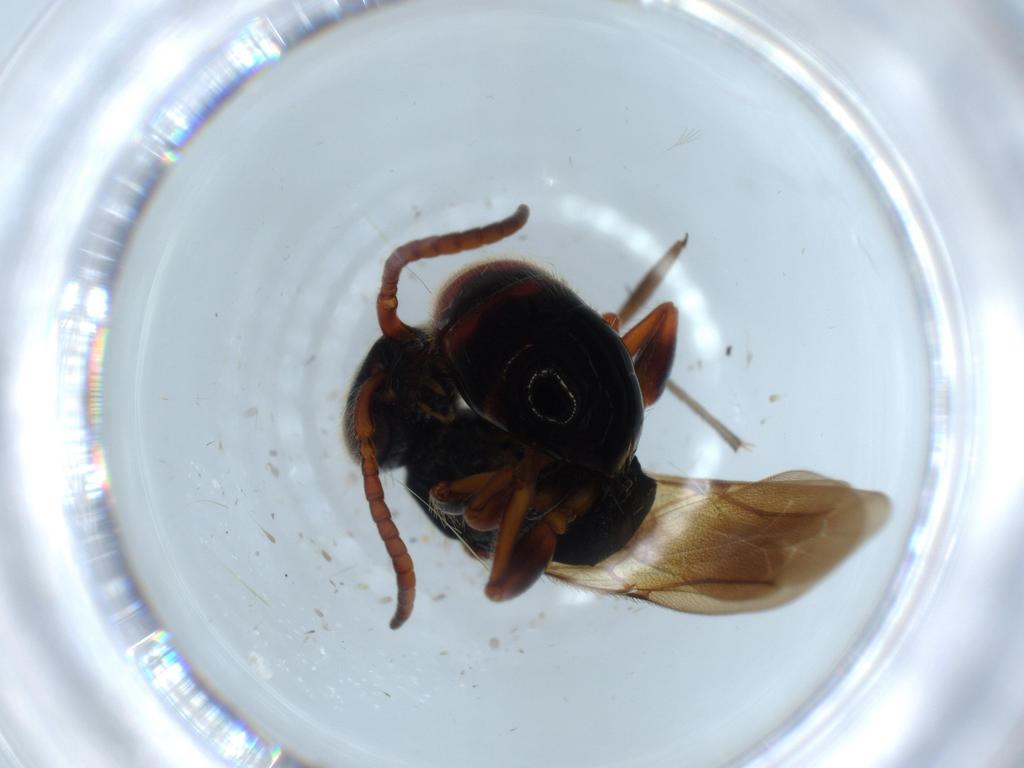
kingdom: Animalia
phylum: Arthropoda
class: Insecta
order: Hymenoptera
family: Bethylidae
